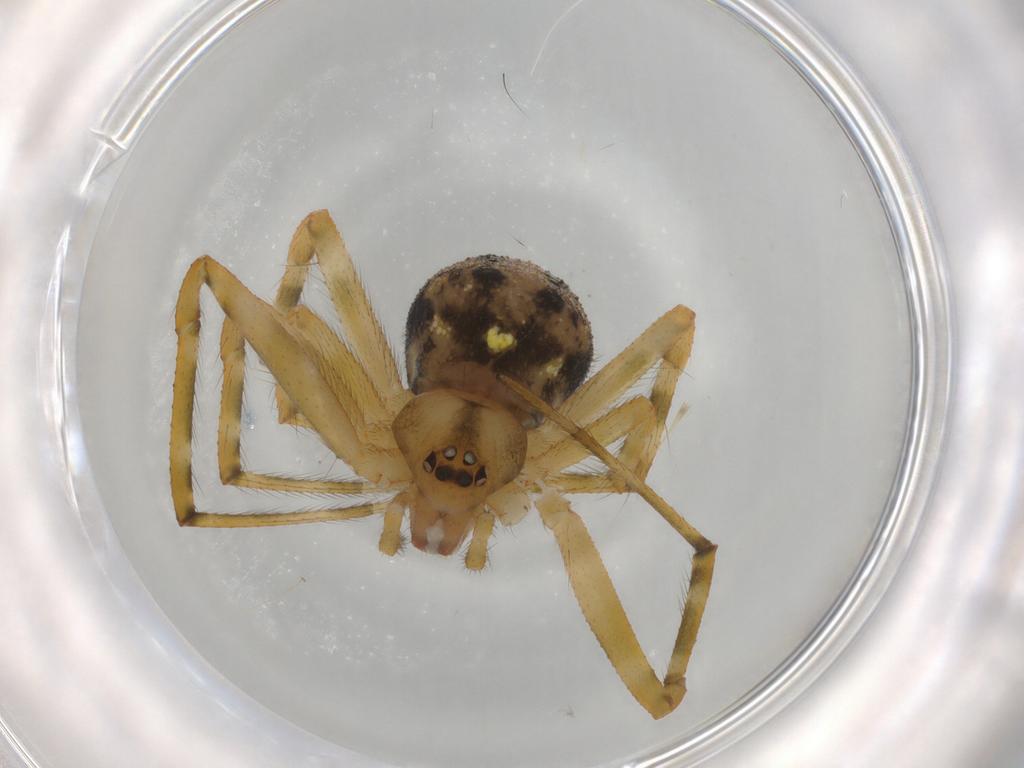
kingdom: Animalia
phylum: Arthropoda
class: Arachnida
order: Araneae
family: Theridiidae
